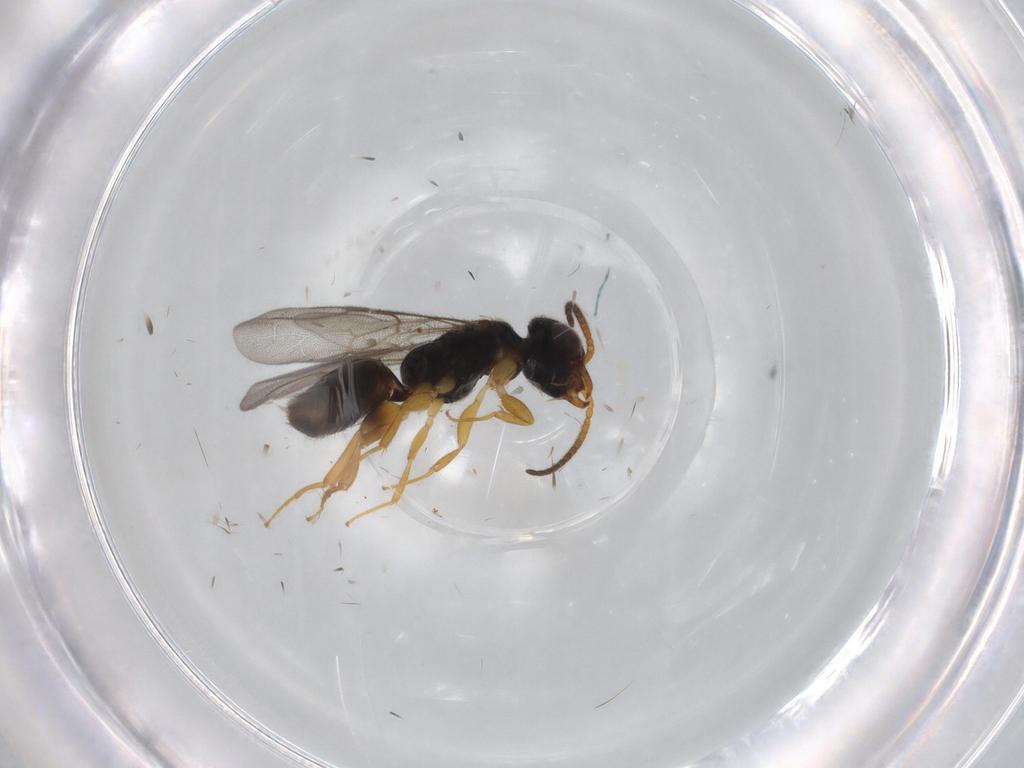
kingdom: Animalia
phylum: Arthropoda
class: Insecta
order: Hymenoptera
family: Bethylidae
